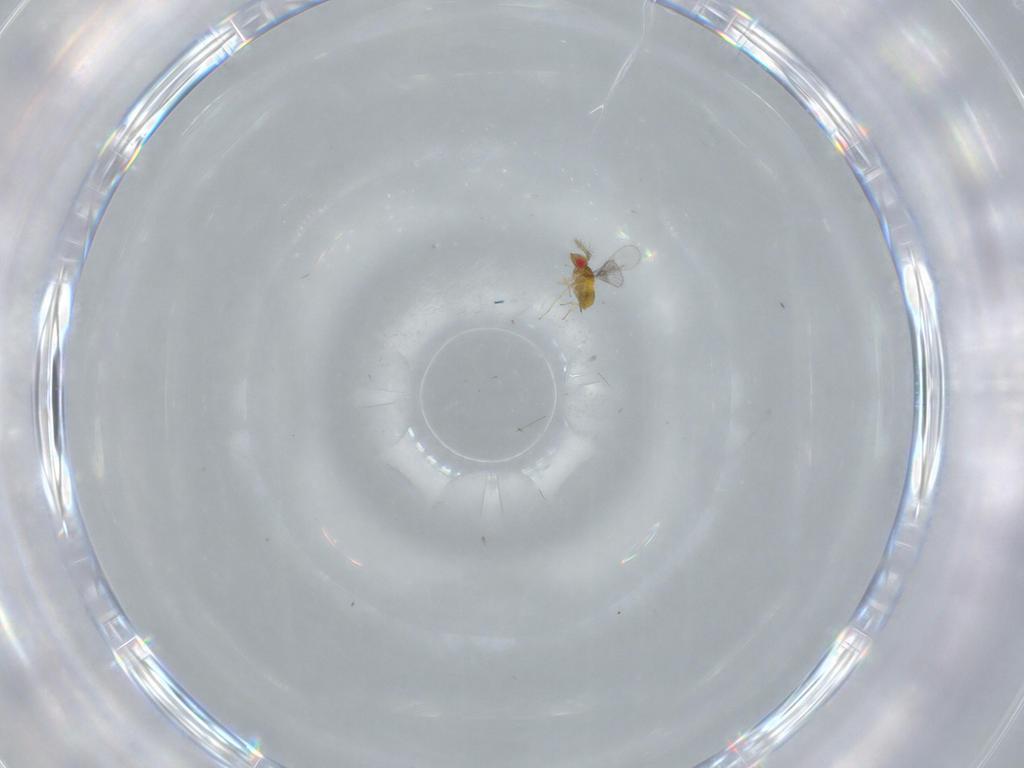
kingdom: Animalia
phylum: Arthropoda
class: Insecta
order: Hymenoptera
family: Trichogrammatidae
